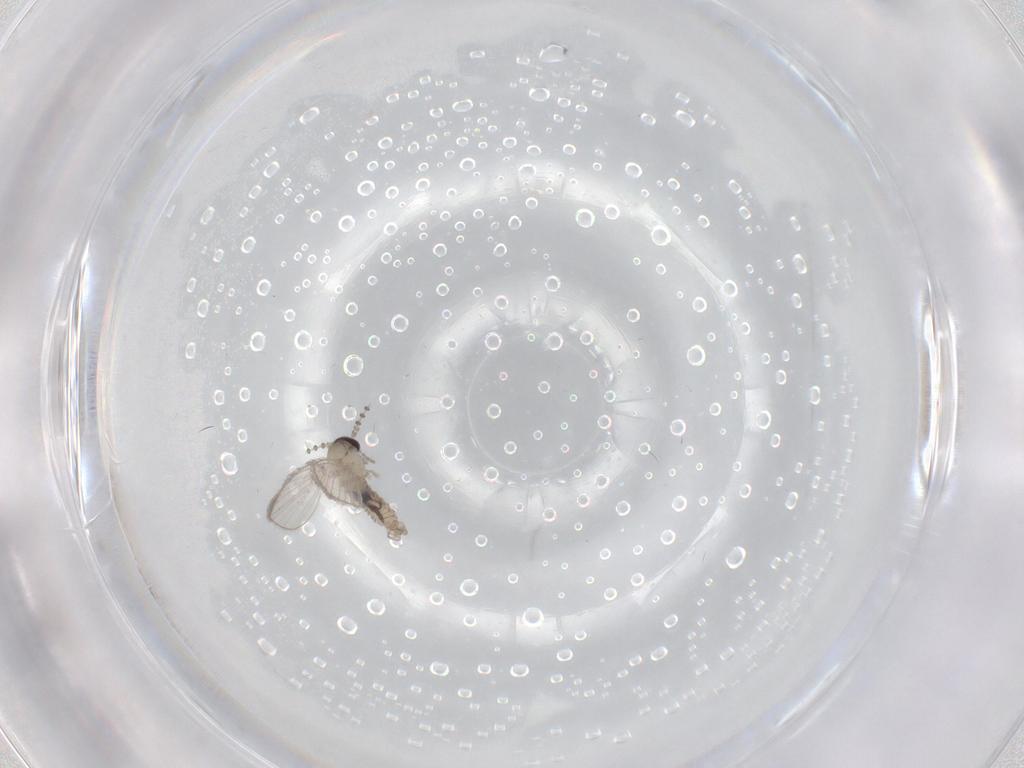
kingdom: Animalia
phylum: Arthropoda
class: Insecta
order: Diptera
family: Psychodidae
